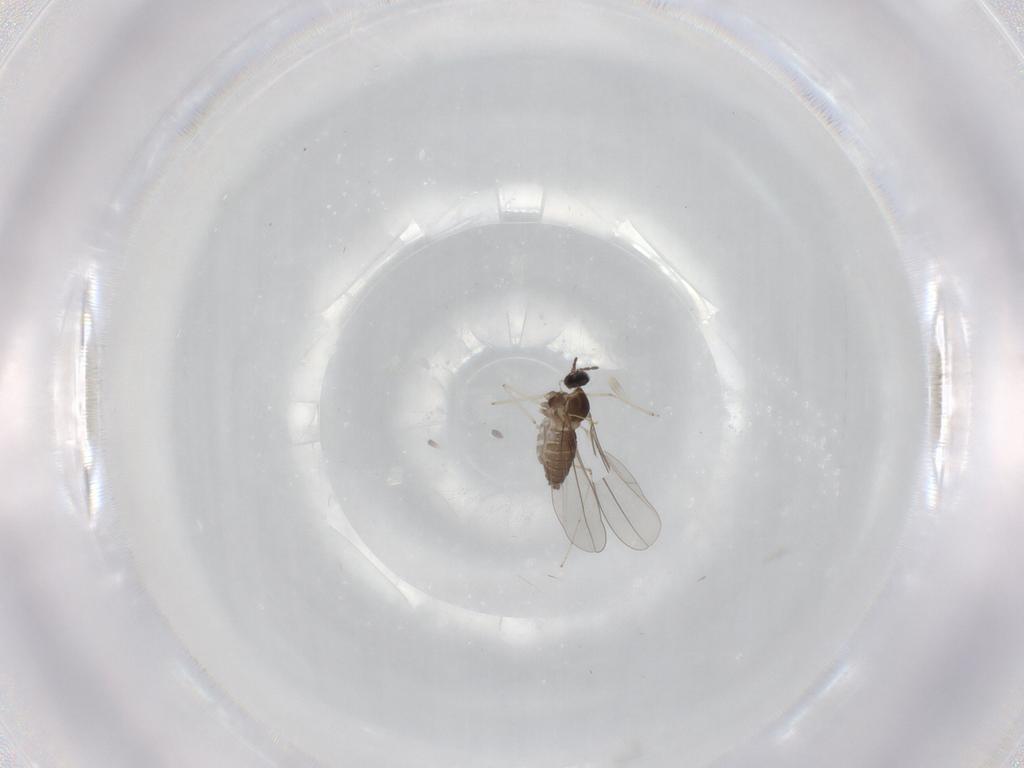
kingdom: Animalia
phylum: Arthropoda
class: Insecta
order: Diptera
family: Cecidomyiidae
